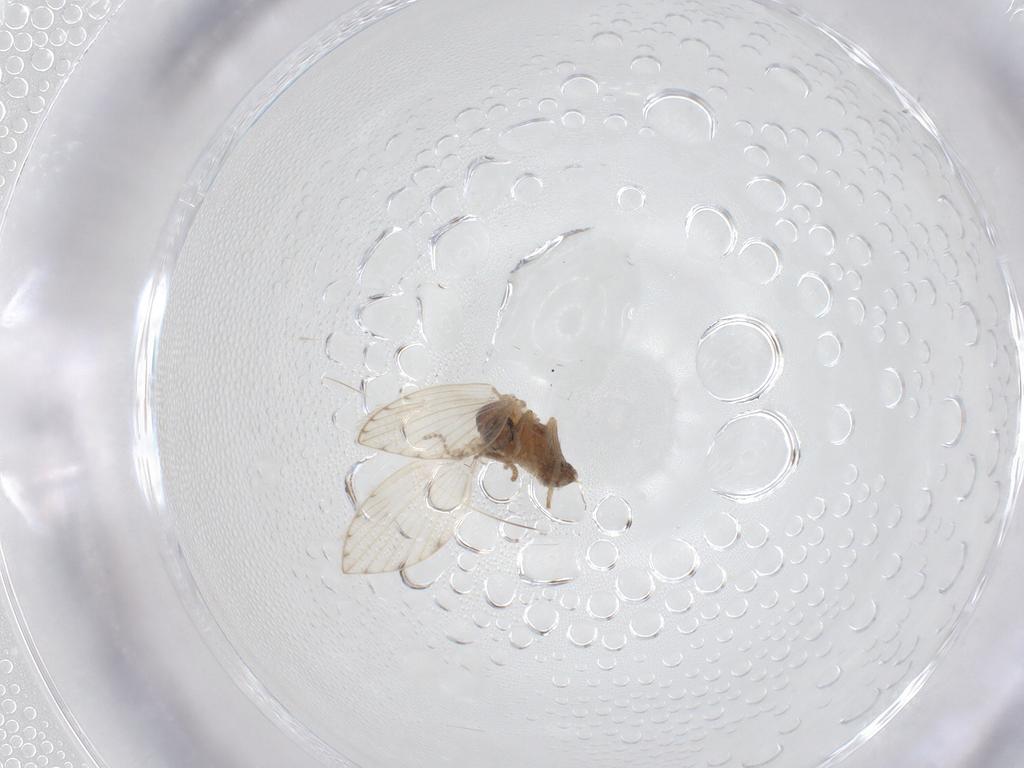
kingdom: Animalia
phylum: Arthropoda
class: Insecta
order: Diptera
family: Psychodidae
